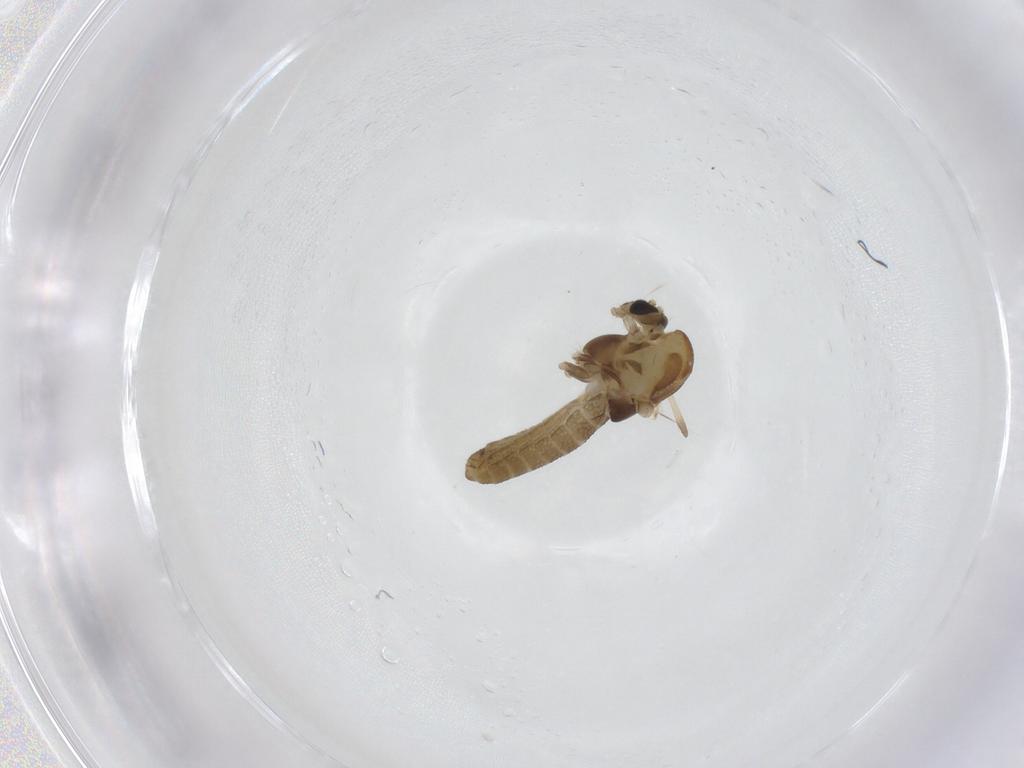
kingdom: Animalia
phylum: Arthropoda
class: Insecta
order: Diptera
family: Chironomidae
